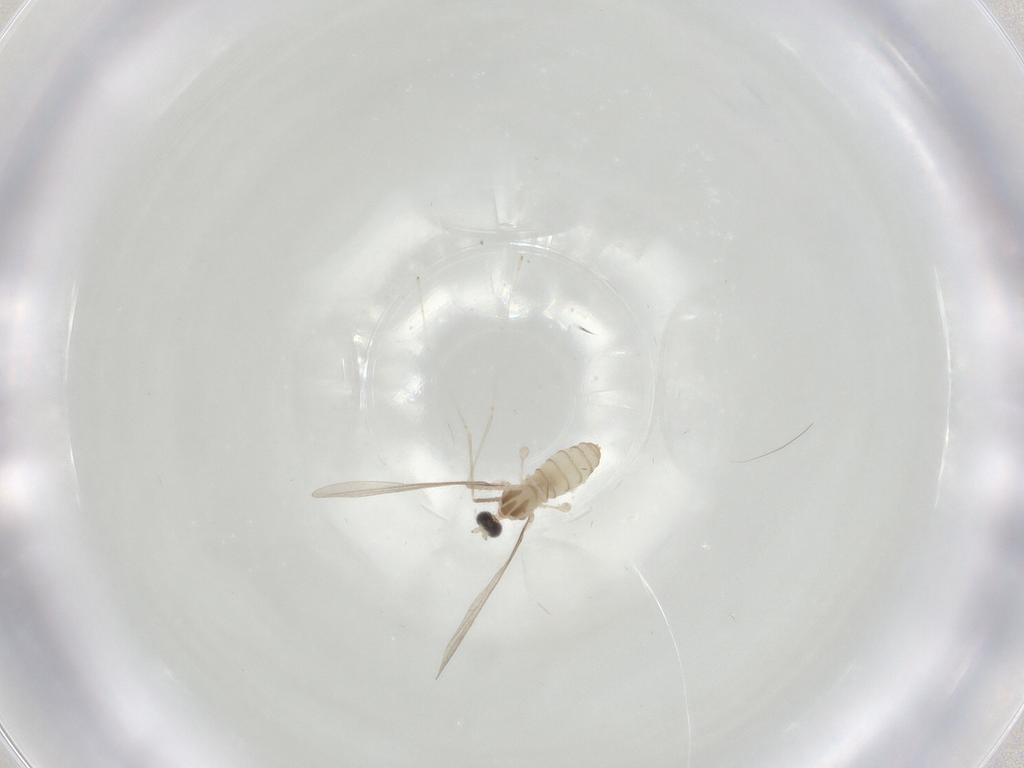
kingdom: Animalia
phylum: Arthropoda
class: Insecta
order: Diptera
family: Cecidomyiidae
